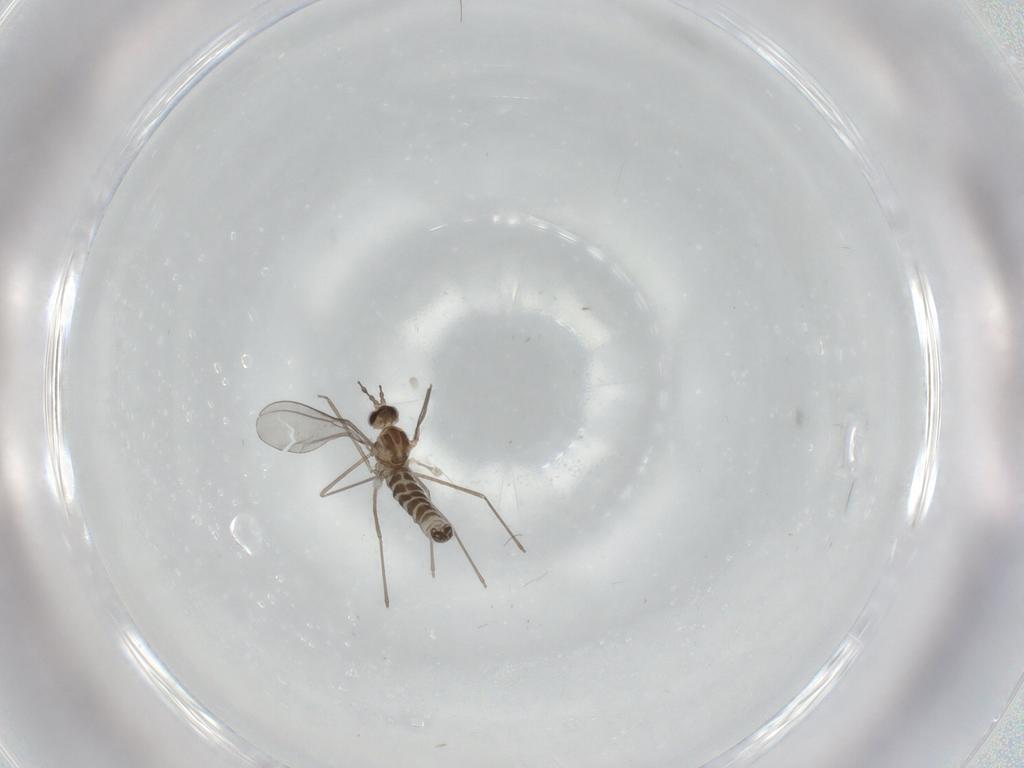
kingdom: Animalia
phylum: Arthropoda
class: Insecta
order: Diptera
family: Cecidomyiidae
